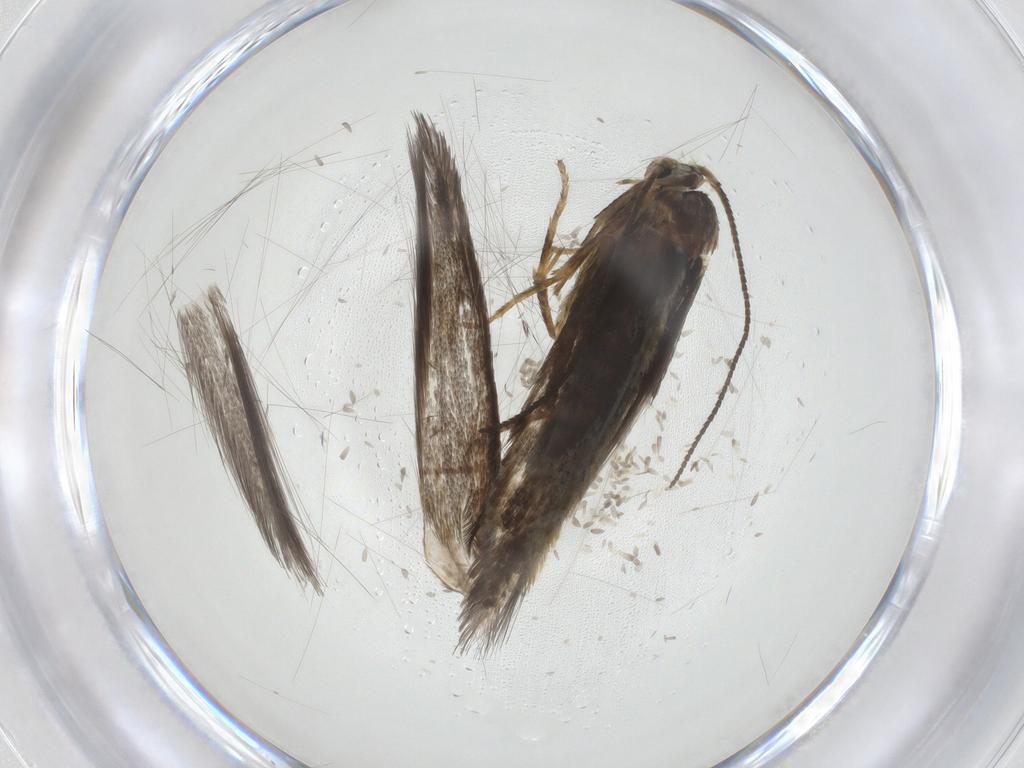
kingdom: Animalia
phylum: Arthropoda
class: Insecta
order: Lepidoptera
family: Nepticulidae
